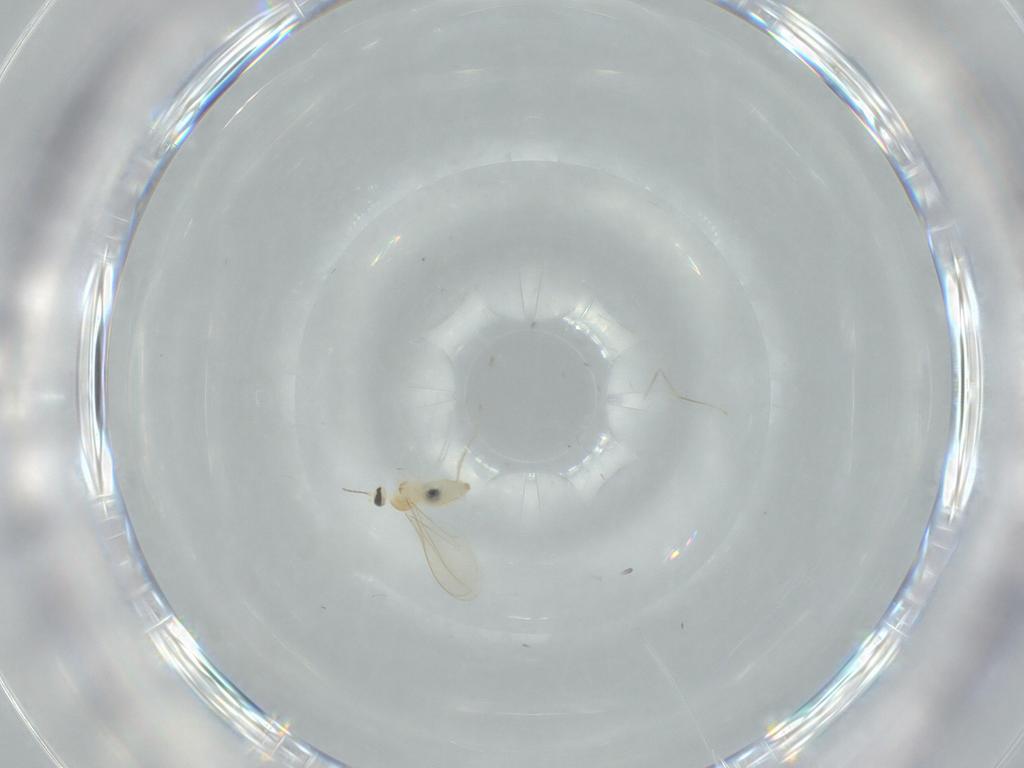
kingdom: Animalia
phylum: Arthropoda
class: Insecta
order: Diptera
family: Cecidomyiidae
